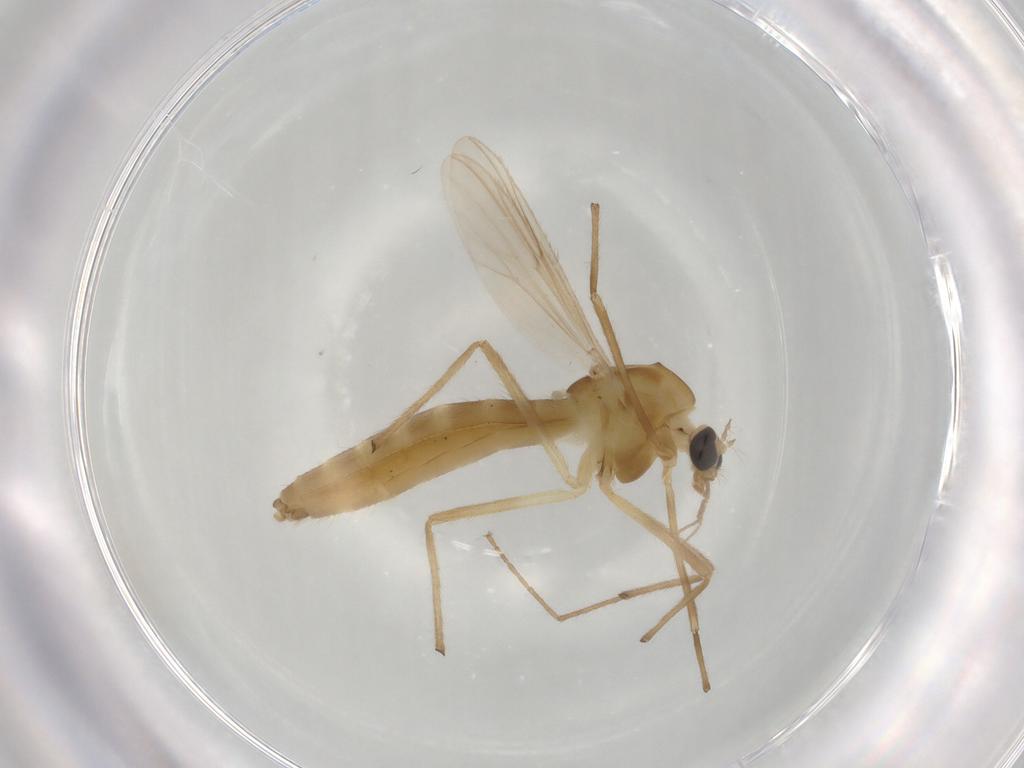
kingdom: Animalia
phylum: Arthropoda
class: Insecta
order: Diptera
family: Chironomidae
